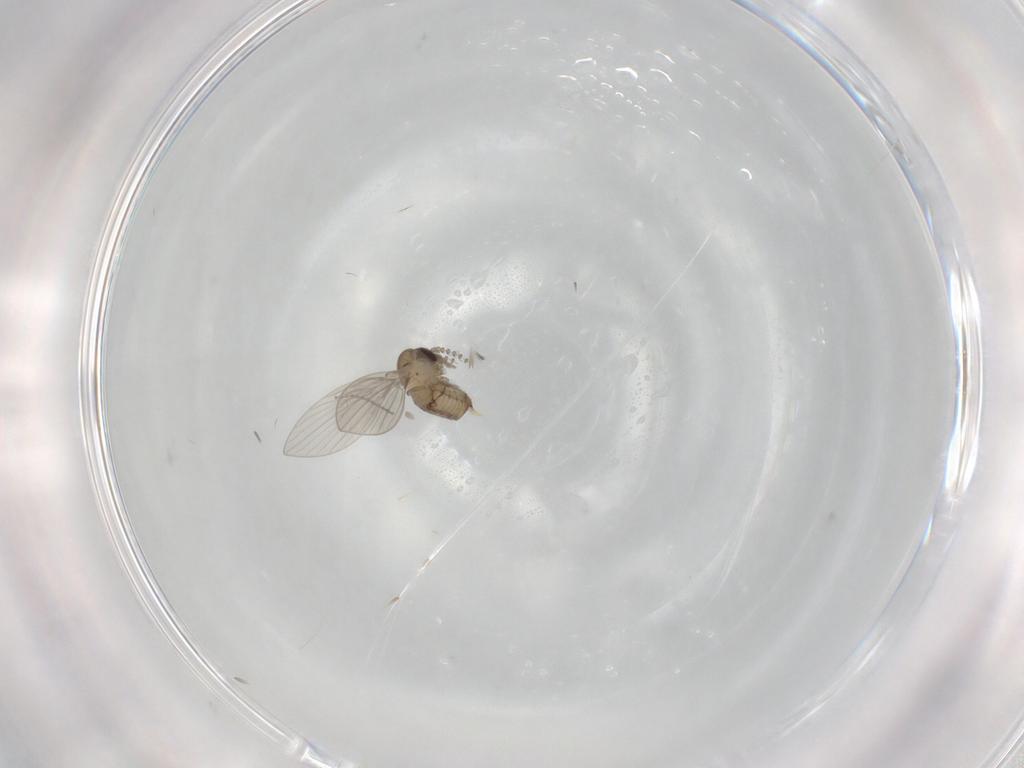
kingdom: Animalia
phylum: Arthropoda
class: Insecta
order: Diptera
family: Psychodidae
